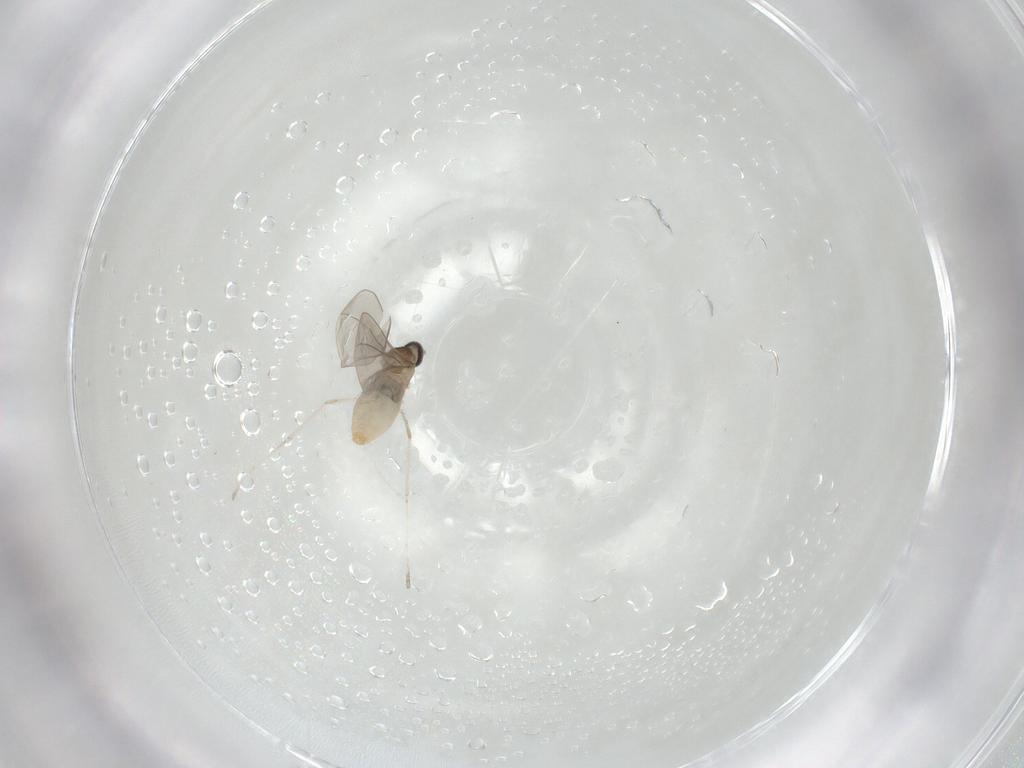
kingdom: Animalia
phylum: Arthropoda
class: Insecta
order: Diptera
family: Cecidomyiidae
